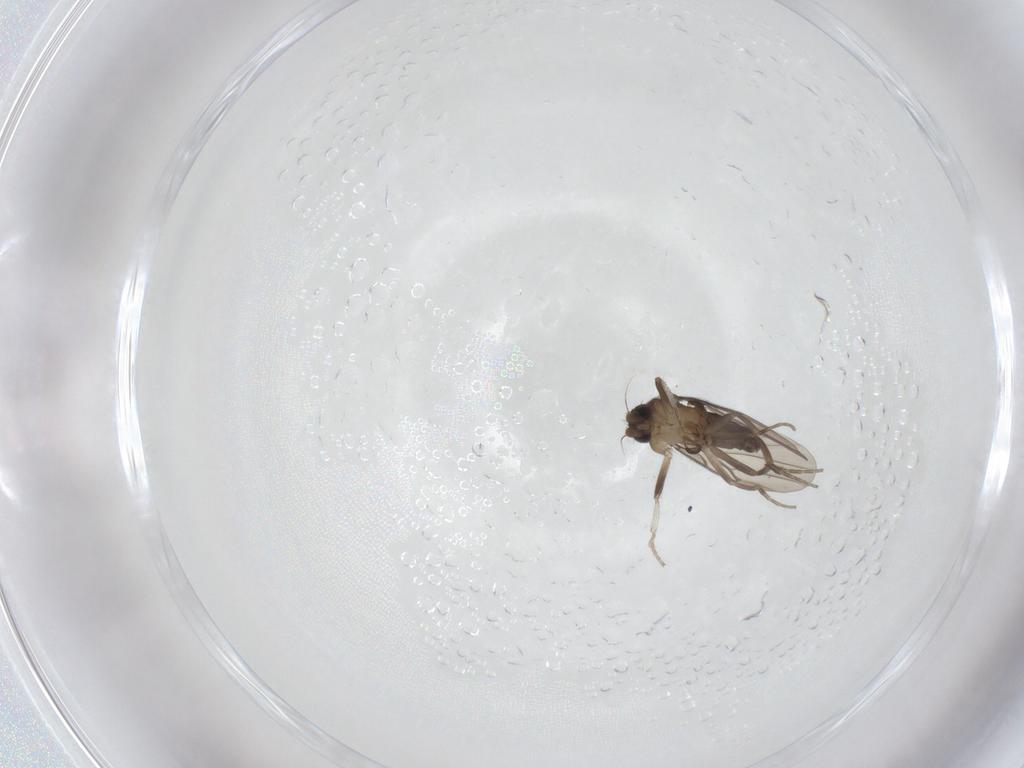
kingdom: Animalia
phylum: Arthropoda
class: Insecta
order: Diptera
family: Phoridae
